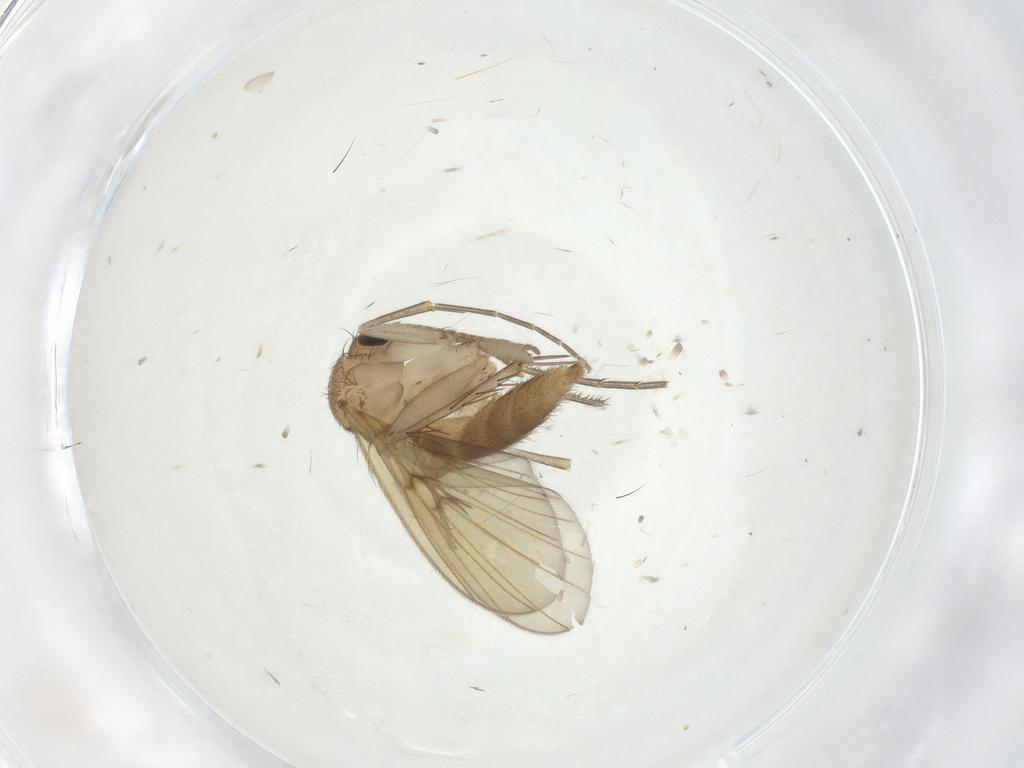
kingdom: Animalia
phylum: Arthropoda
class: Insecta
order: Diptera
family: Mycetophilidae
